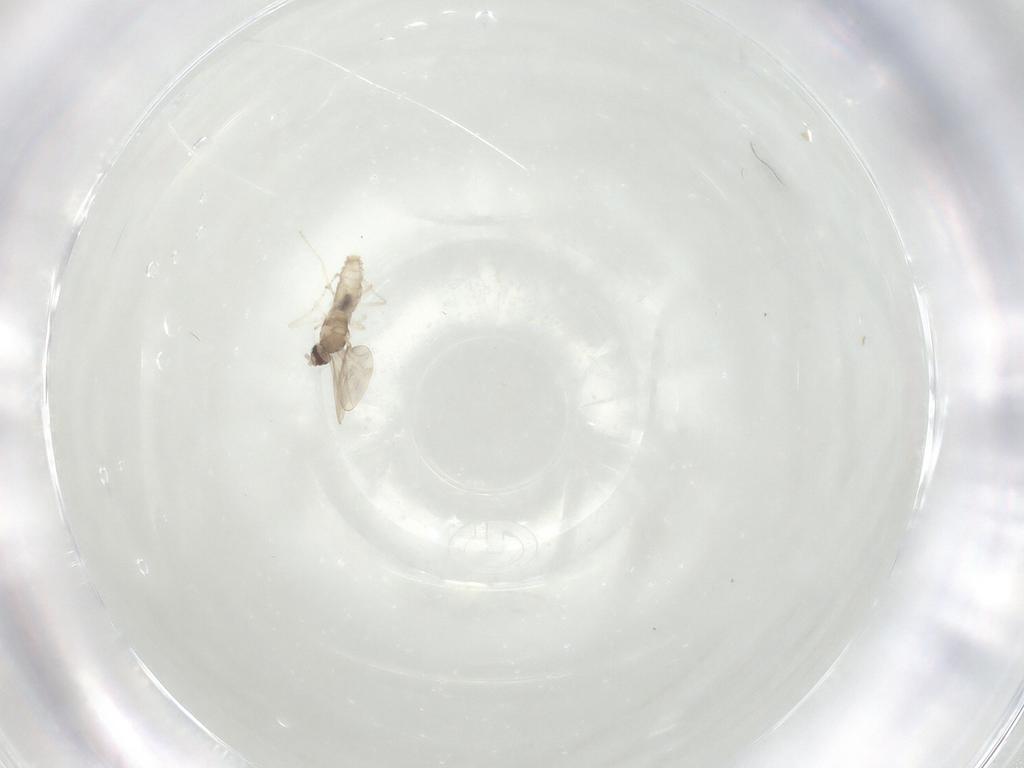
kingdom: Animalia
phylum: Arthropoda
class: Insecta
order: Diptera
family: Cecidomyiidae
